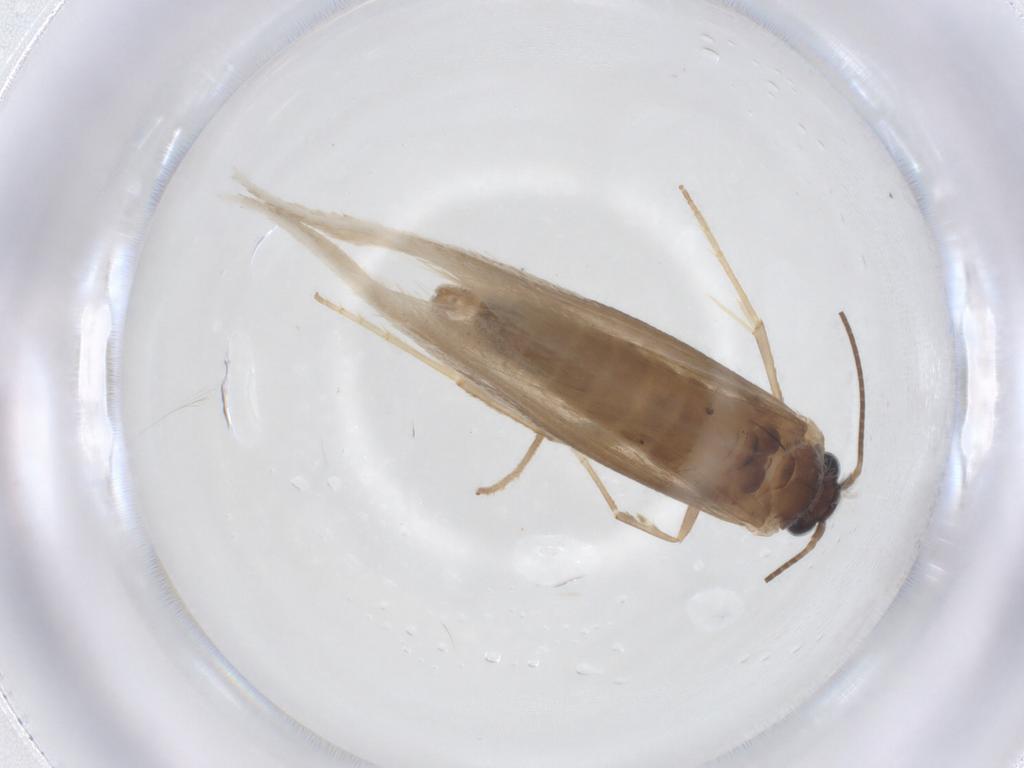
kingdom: Animalia
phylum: Arthropoda
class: Insecta
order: Lepidoptera
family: Tridentaformidae
